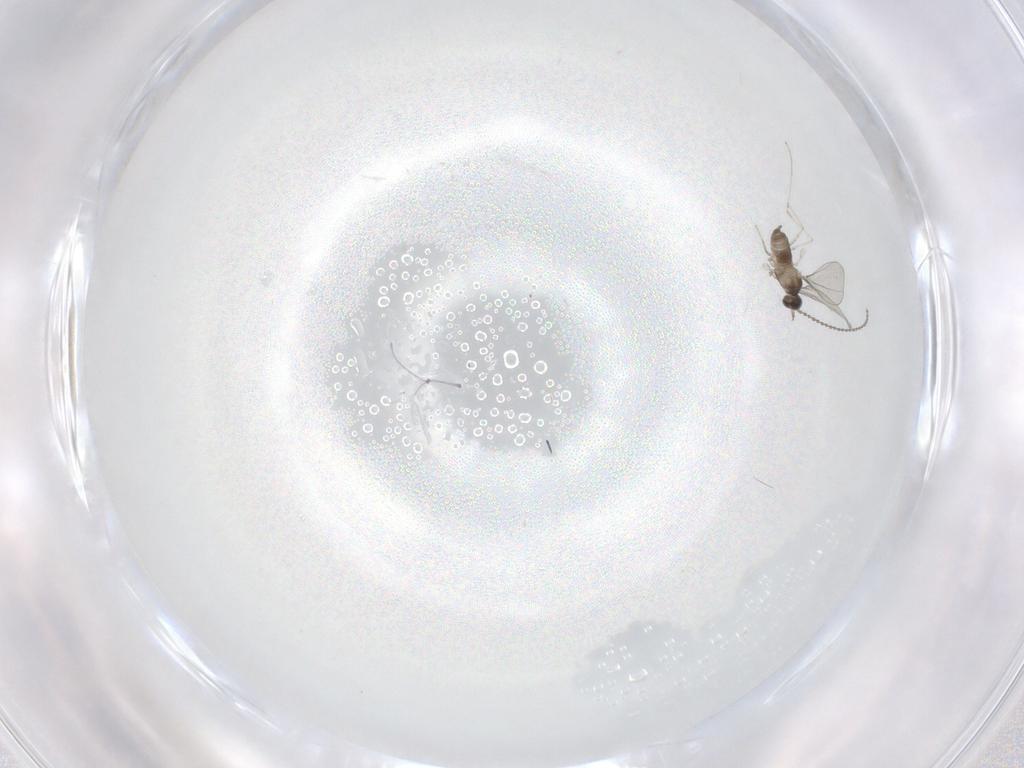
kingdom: Animalia
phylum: Arthropoda
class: Insecta
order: Diptera
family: Cecidomyiidae
